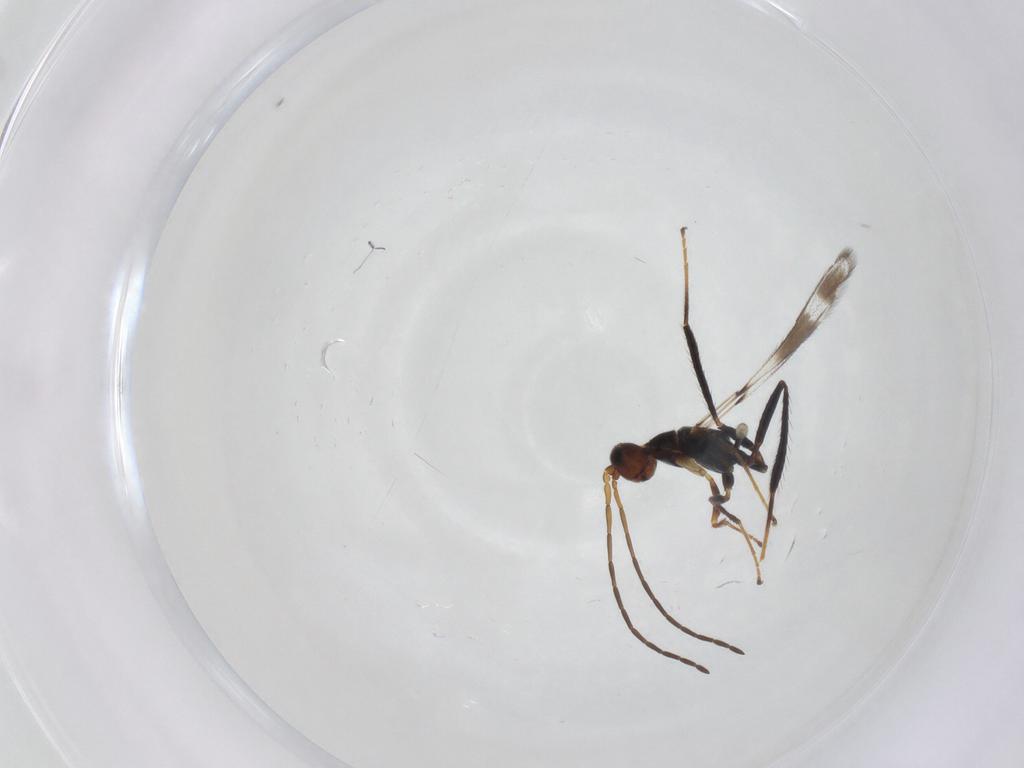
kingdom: Animalia
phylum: Arthropoda
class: Insecta
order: Hymenoptera
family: Mymaridae
